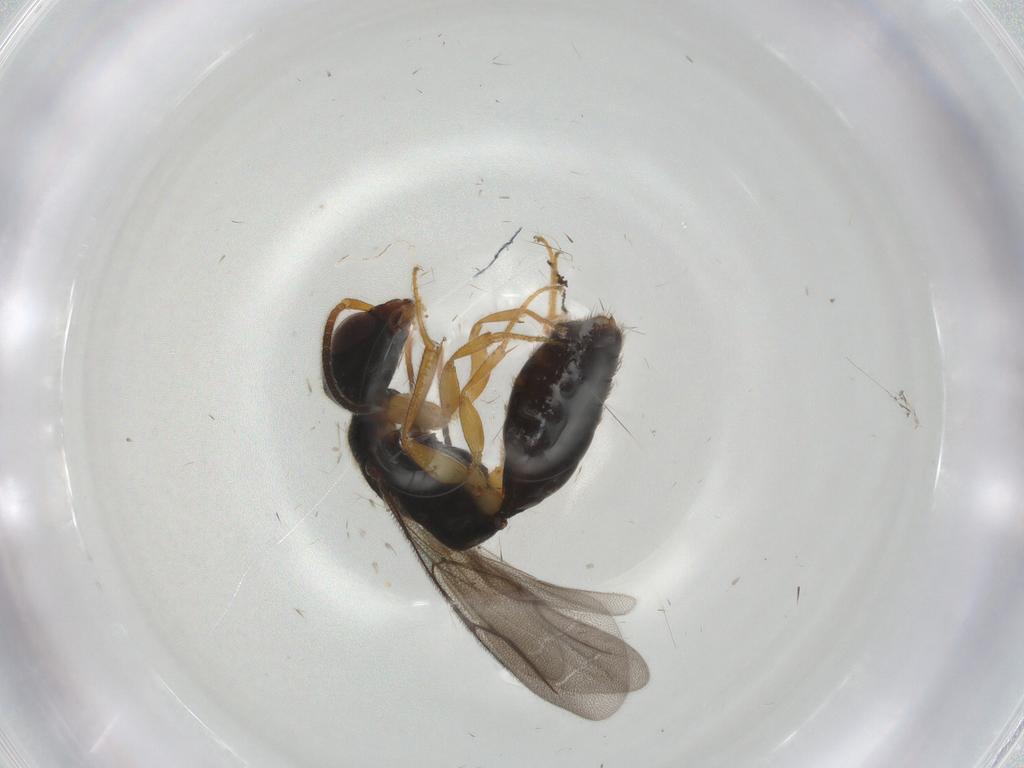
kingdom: Animalia
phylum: Arthropoda
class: Insecta
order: Hymenoptera
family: Bethylidae
